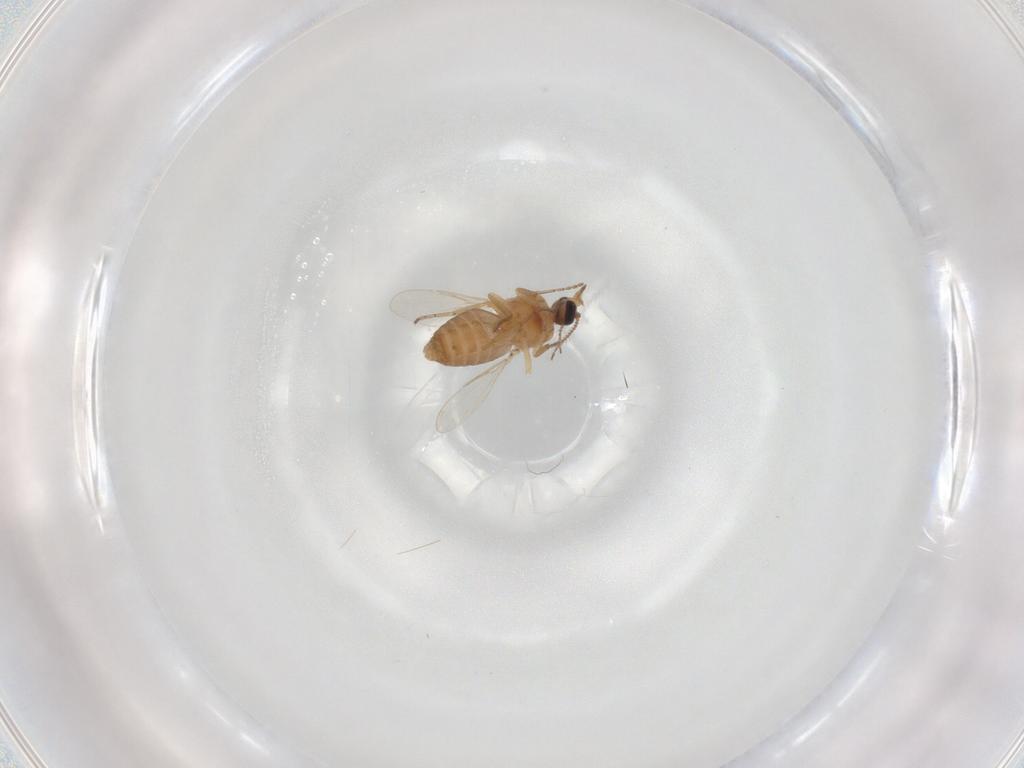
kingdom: Animalia
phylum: Arthropoda
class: Insecta
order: Diptera
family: Ceratopogonidae
